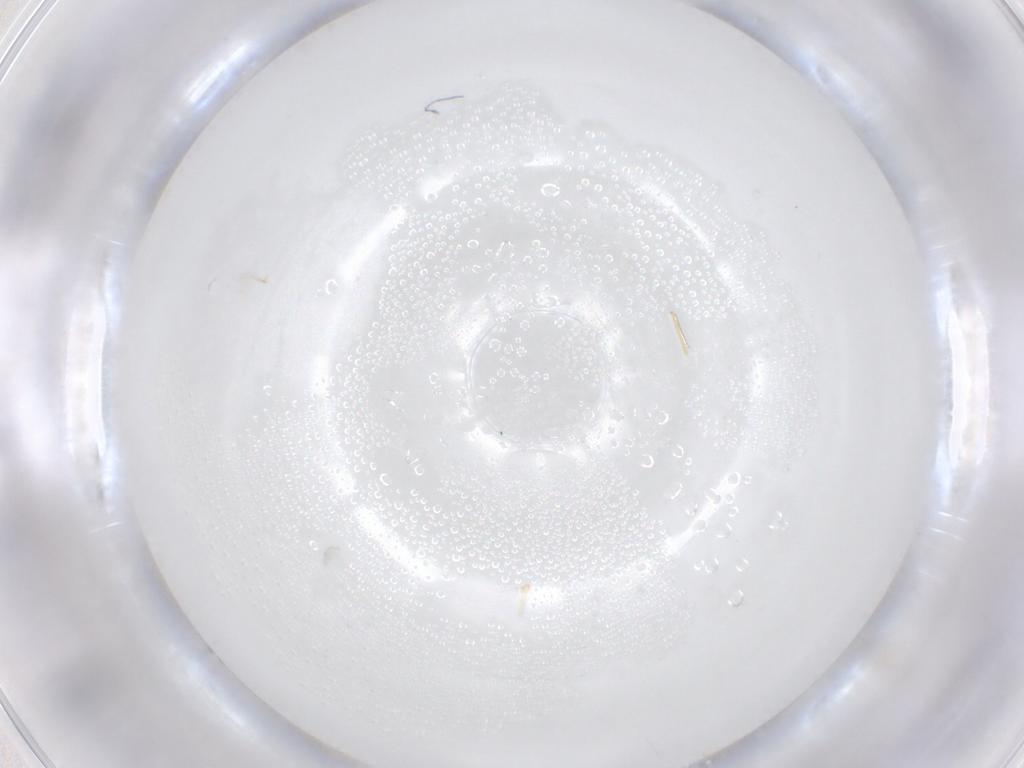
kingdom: Animalia
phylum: Arthropoda
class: Insecta
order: Hymenoptera
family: Mymaridae
